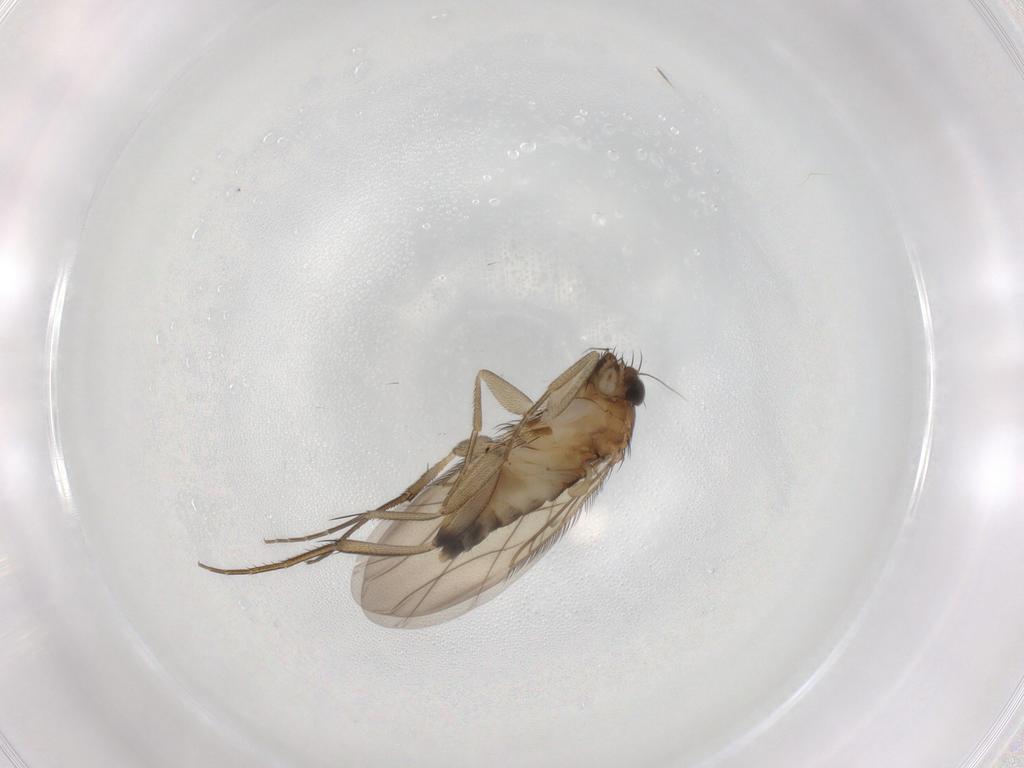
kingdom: Animalia
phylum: Arthropoda
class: Insecta
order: Diptera
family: Phoridae
